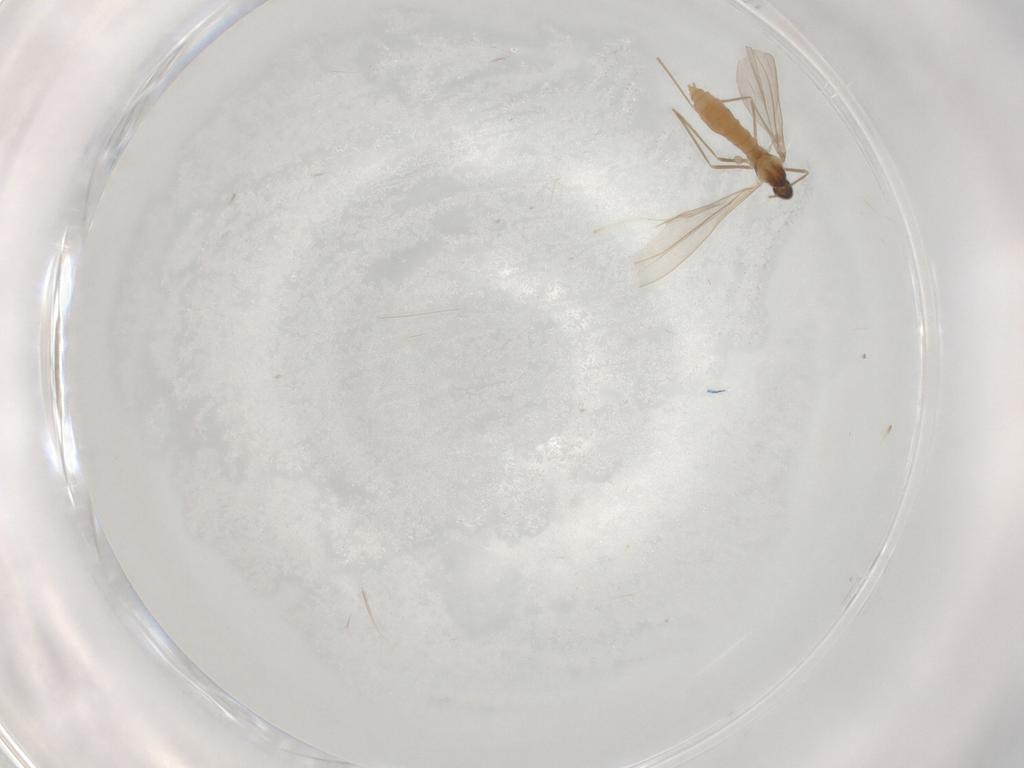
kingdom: Animalia
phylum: Arthropoda
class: Insecta
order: Diptera
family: Cecidomyiidae
